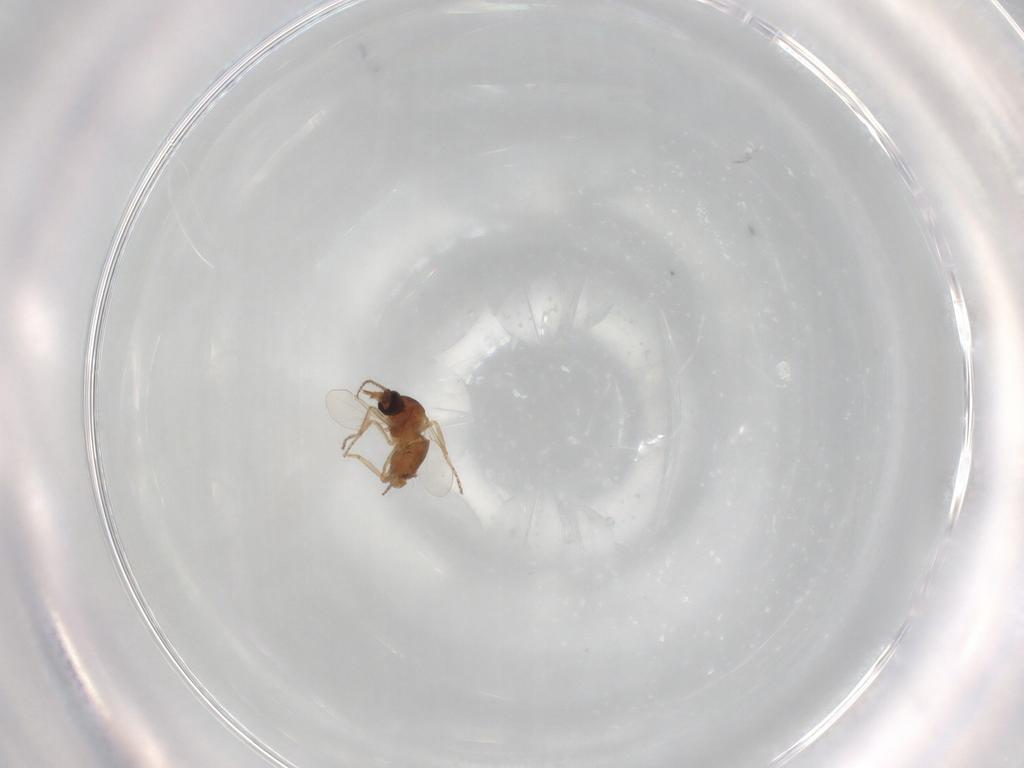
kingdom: Animalia
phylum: Arthropoda
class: Insecta
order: Diptera
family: Ceratopogonidae
